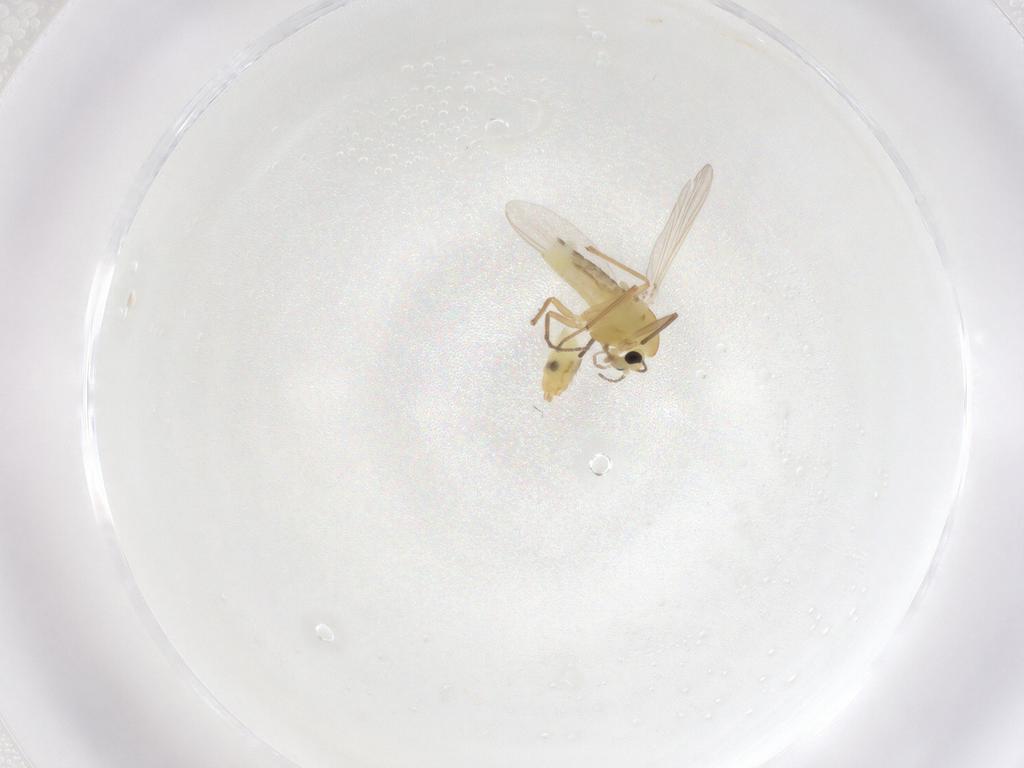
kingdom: Animalia
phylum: Arthropoda
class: Insecta
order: Diptera
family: Chironomidae
